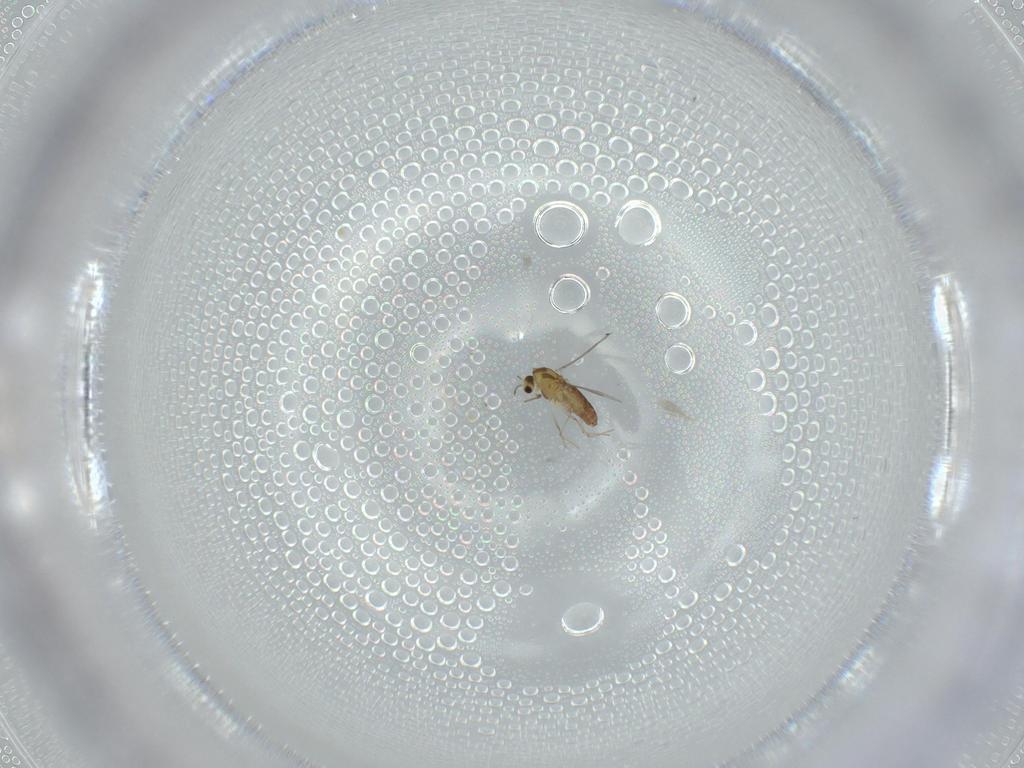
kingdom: Animalia
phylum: Arthropoda
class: Insecta
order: Diptera
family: Chironomidae
